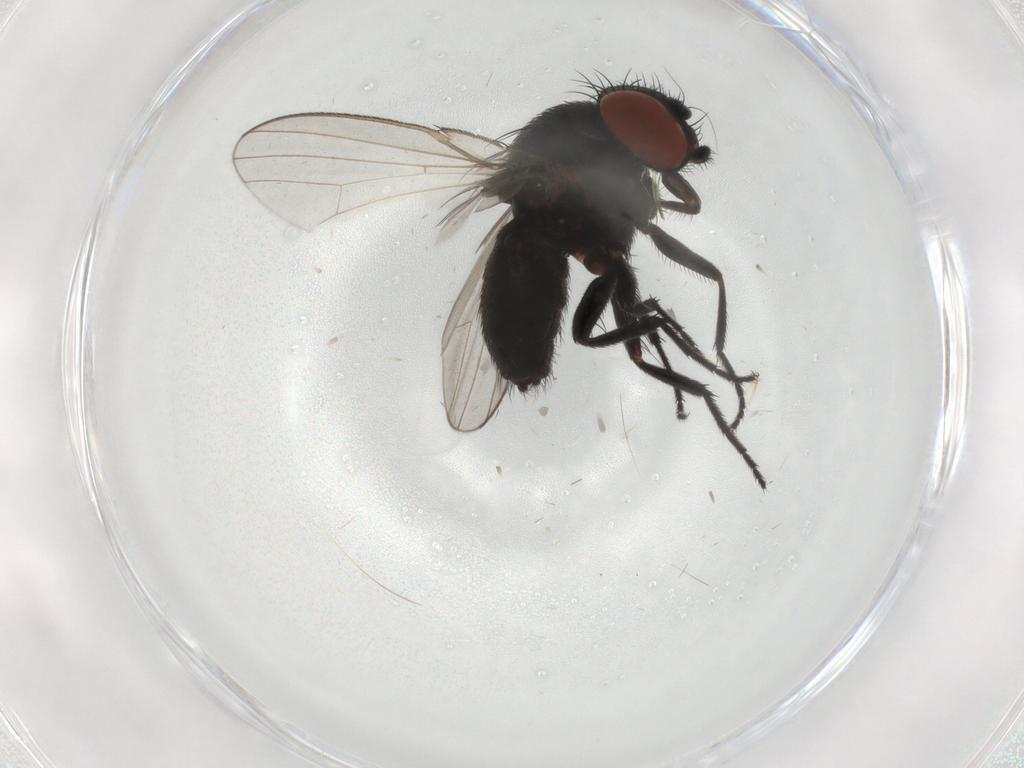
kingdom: Animalia
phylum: Arthropoda
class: Insecta
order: Diptera
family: Milichiidae
